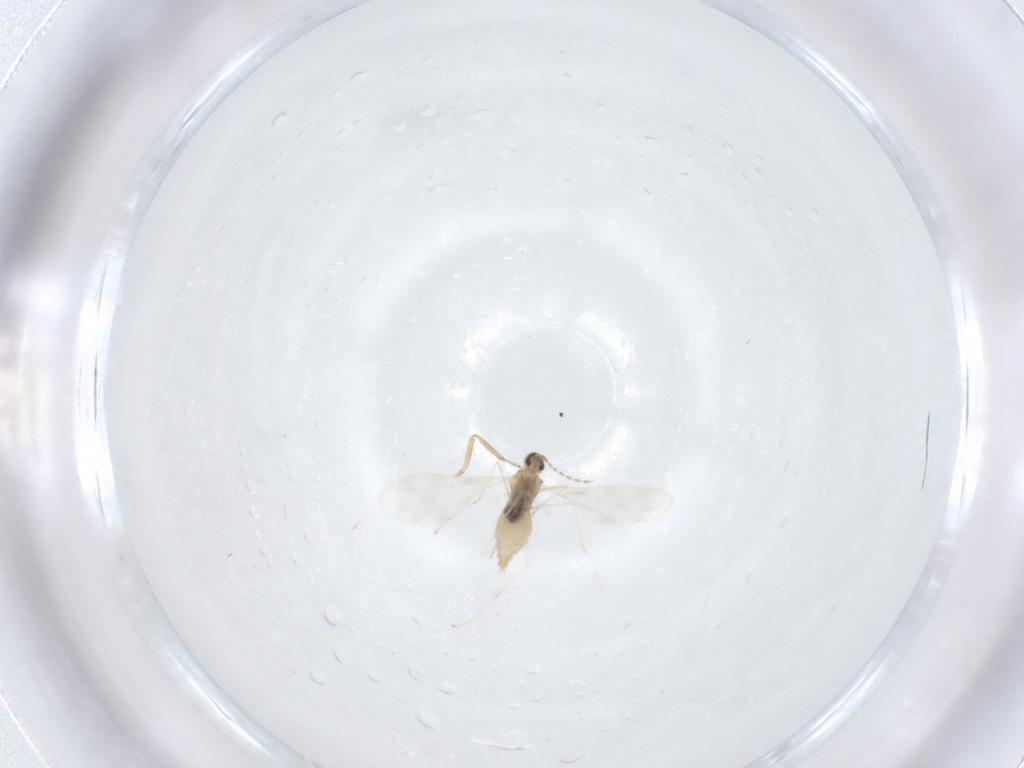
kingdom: Animalia
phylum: Arthropoda
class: Insecta
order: Diptera
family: Cecidomyiidae
